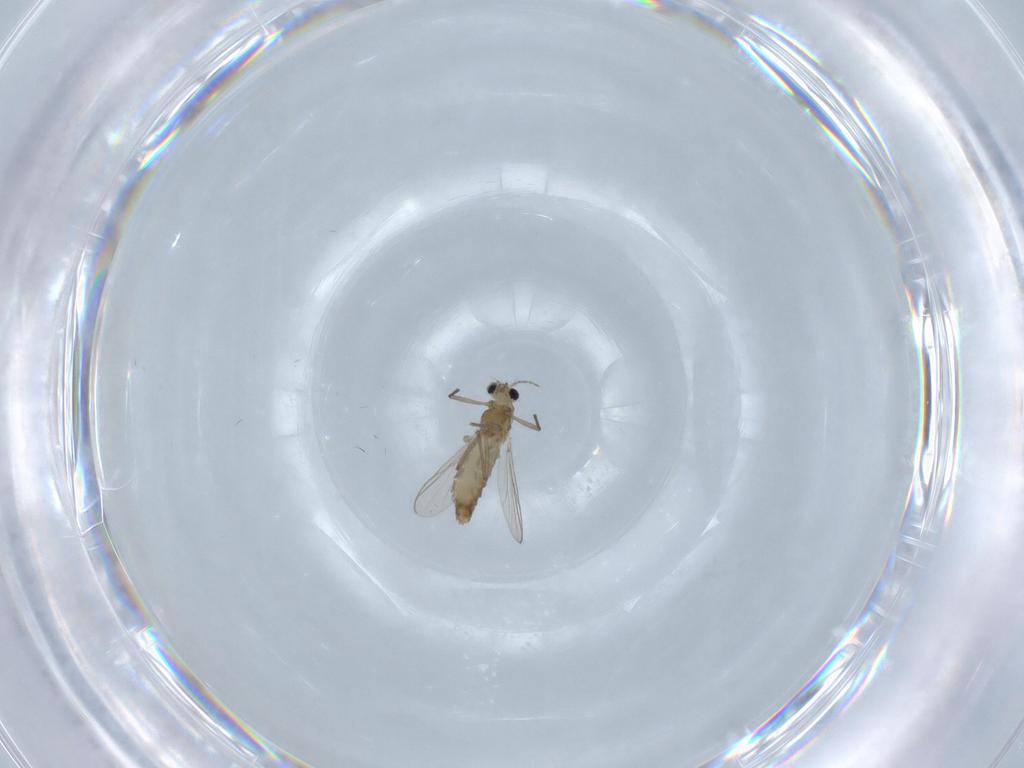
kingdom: Animalia
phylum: Arthropoda
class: Insecta
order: Diptera
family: Chironomidae
